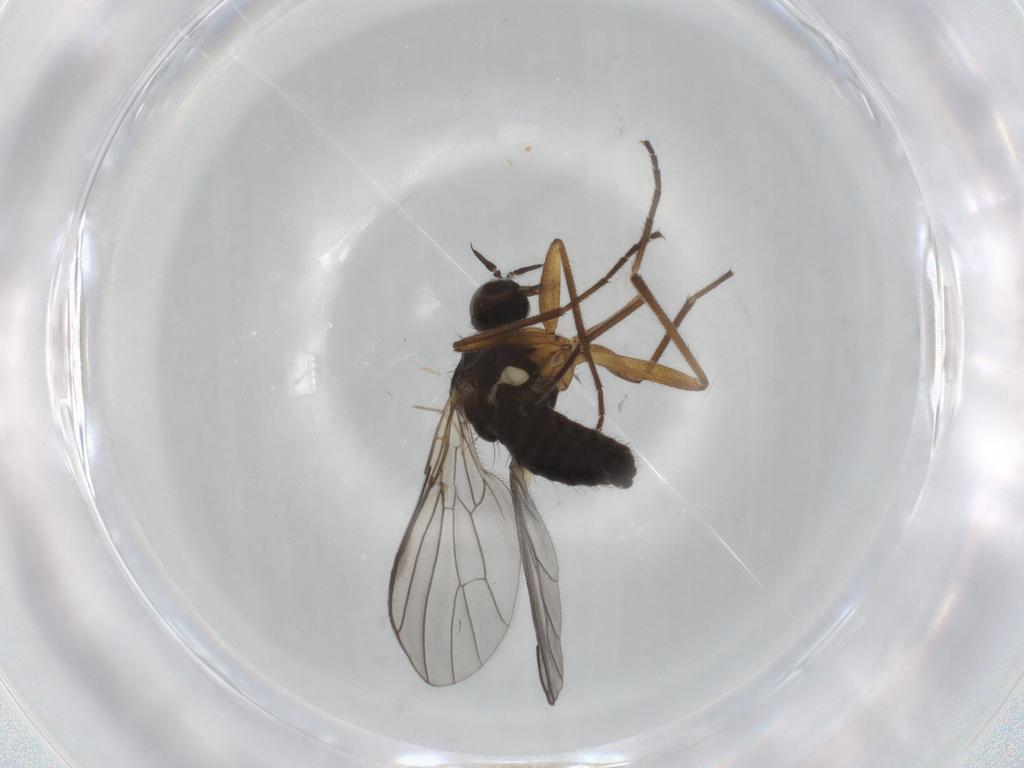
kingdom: Animalia
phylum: Arthropoda
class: Insecta
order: Diptera
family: Empididae
